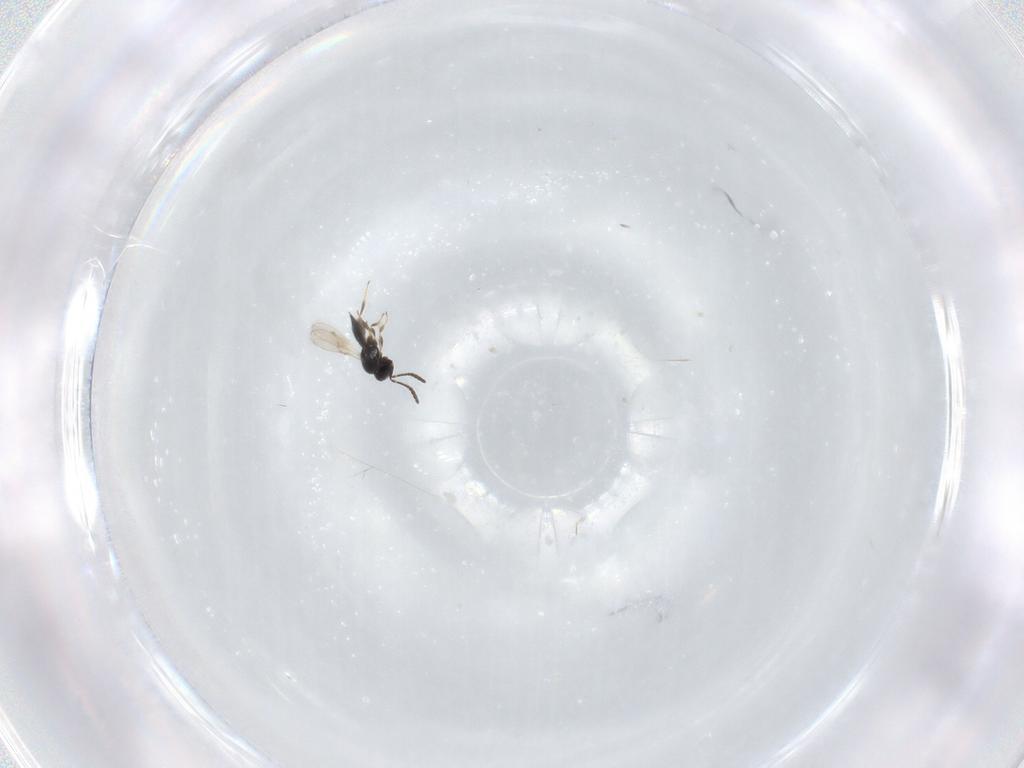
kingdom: Animalia
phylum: Arthropoda
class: Insecta
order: Hymenoptera
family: Scelionidae
